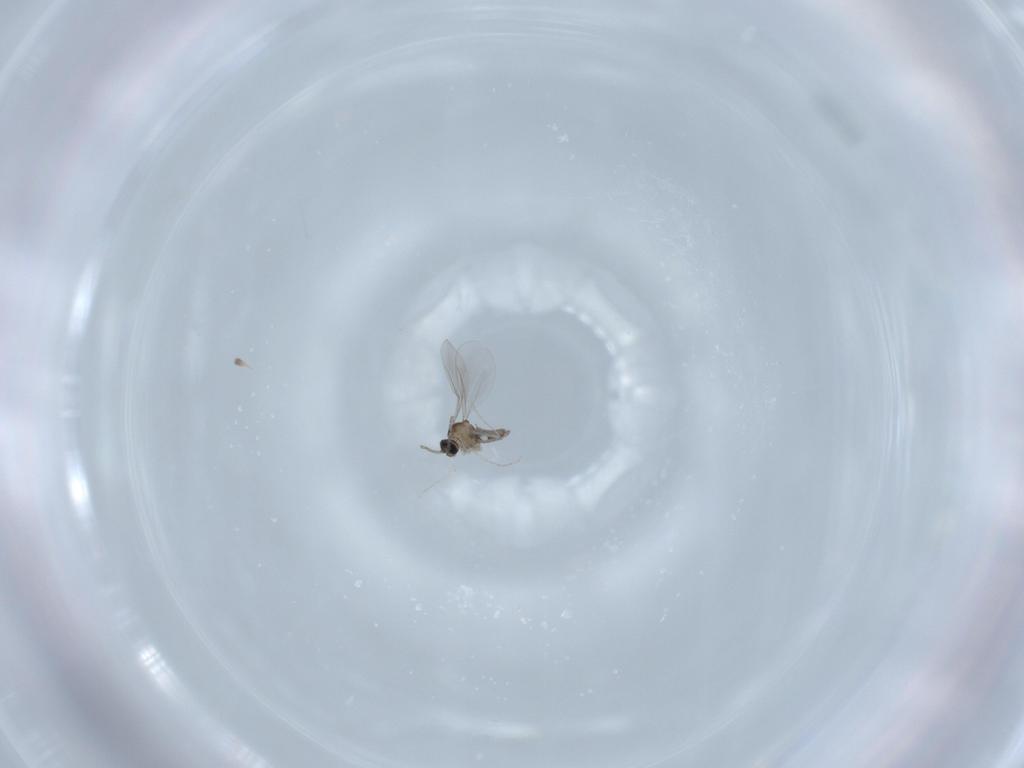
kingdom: Animalia
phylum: Arthropoda
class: Insecta
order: Diptera
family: Cecidomyiidae
